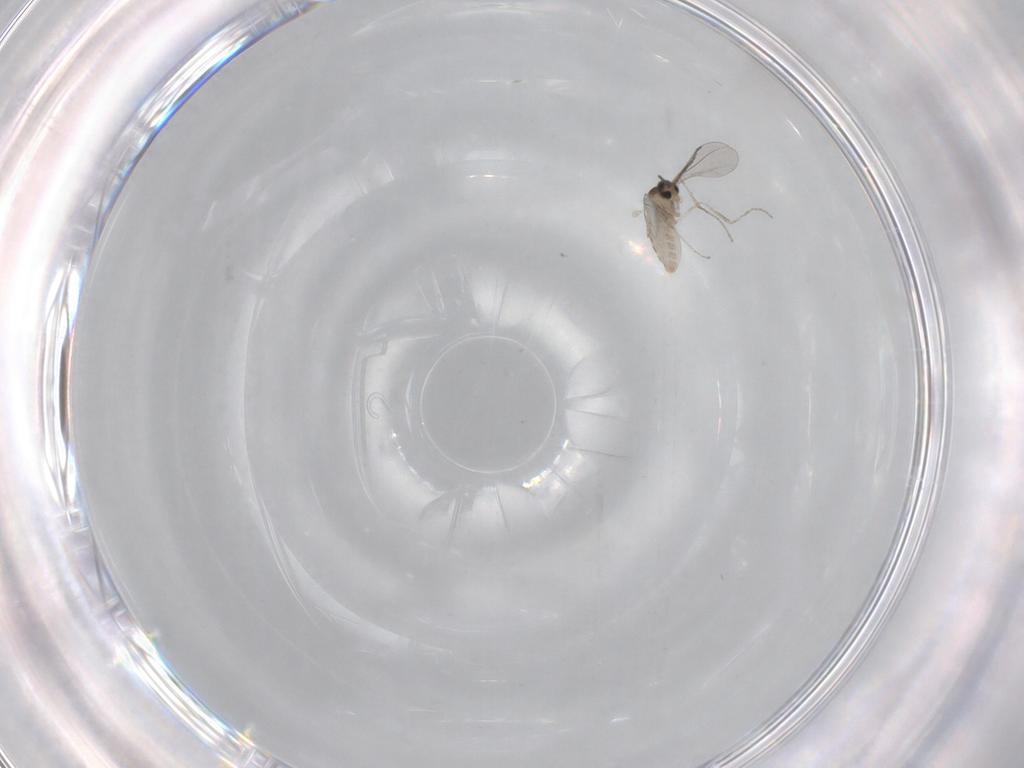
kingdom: Animalia
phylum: Arthropoda
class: Insecta
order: Diptera
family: Cecidomyiidae
